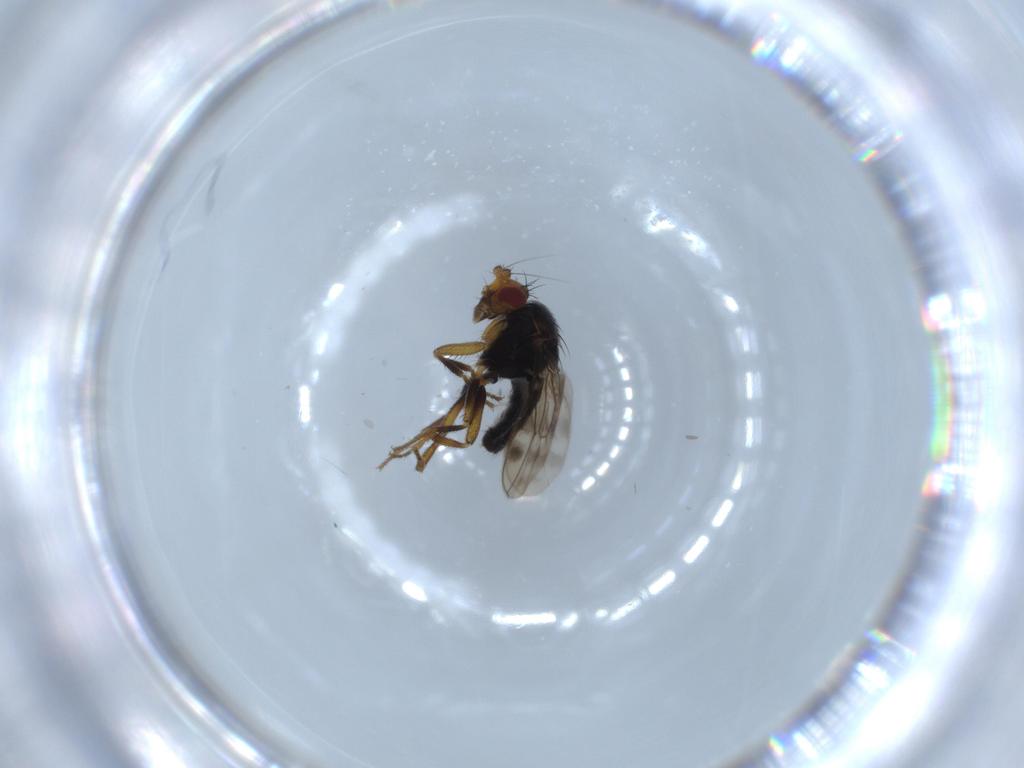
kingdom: Animalia
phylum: Arthropoda
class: Insecta
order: Diptera
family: Sphaeroceridae
